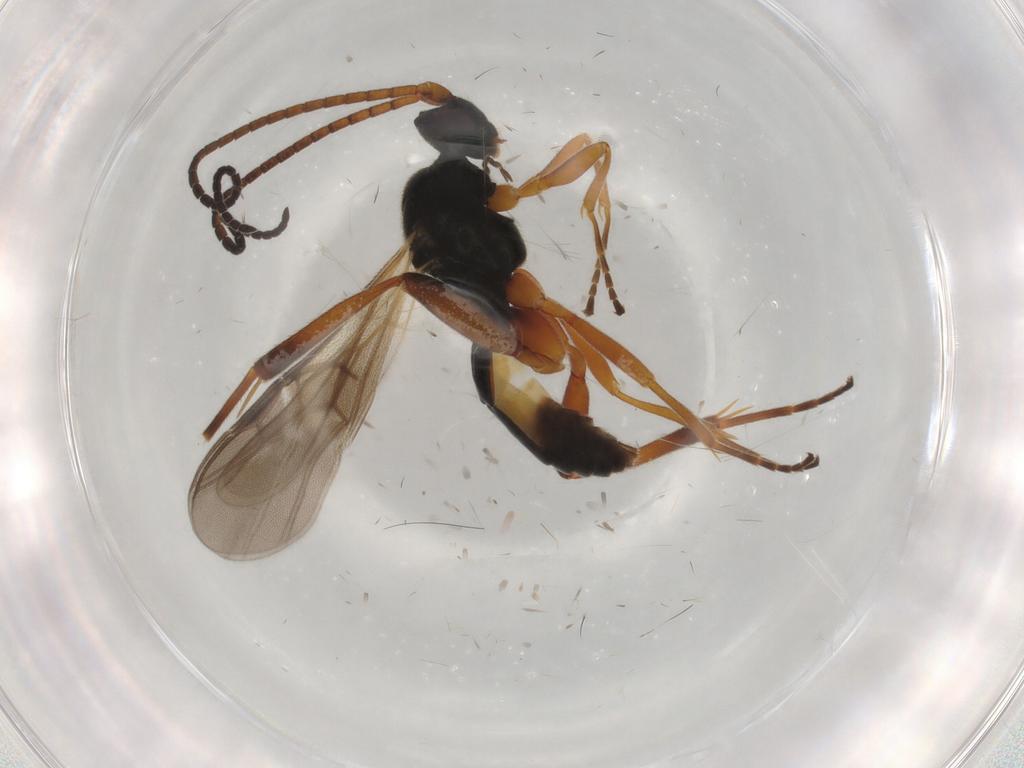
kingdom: Animalia
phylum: Arthropoda
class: Insecta
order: Hymenoptera
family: Braconidae
